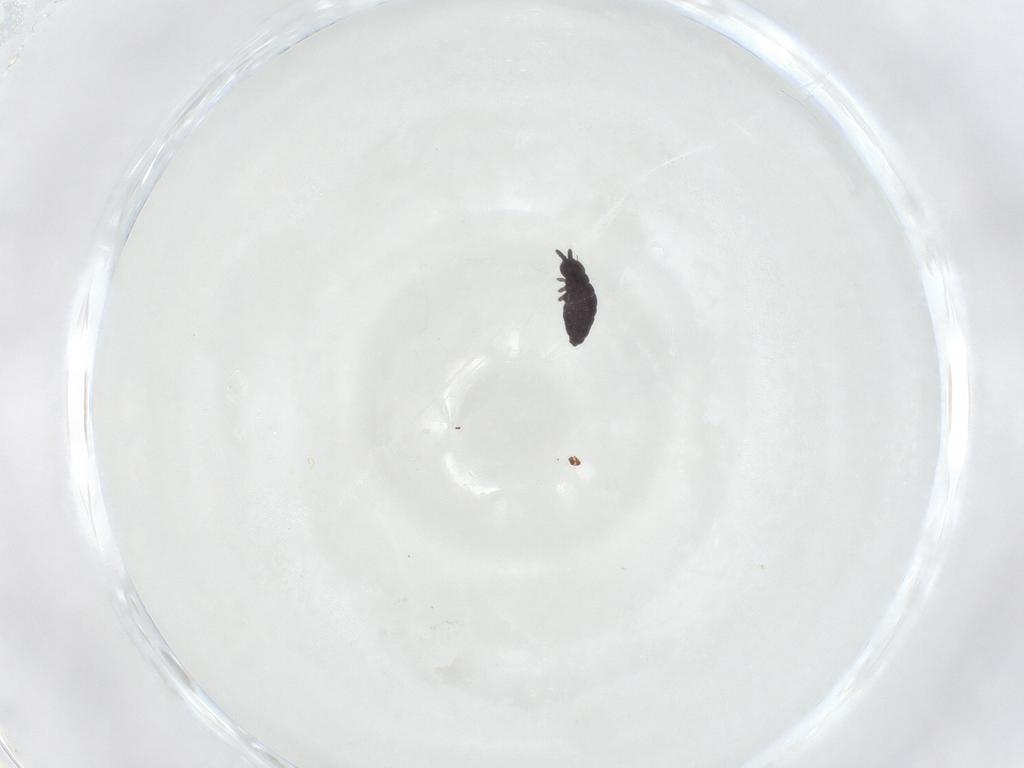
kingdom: Animalia
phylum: Arthropoda
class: Collembola
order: Poduromorpha
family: Hypogastruridae
